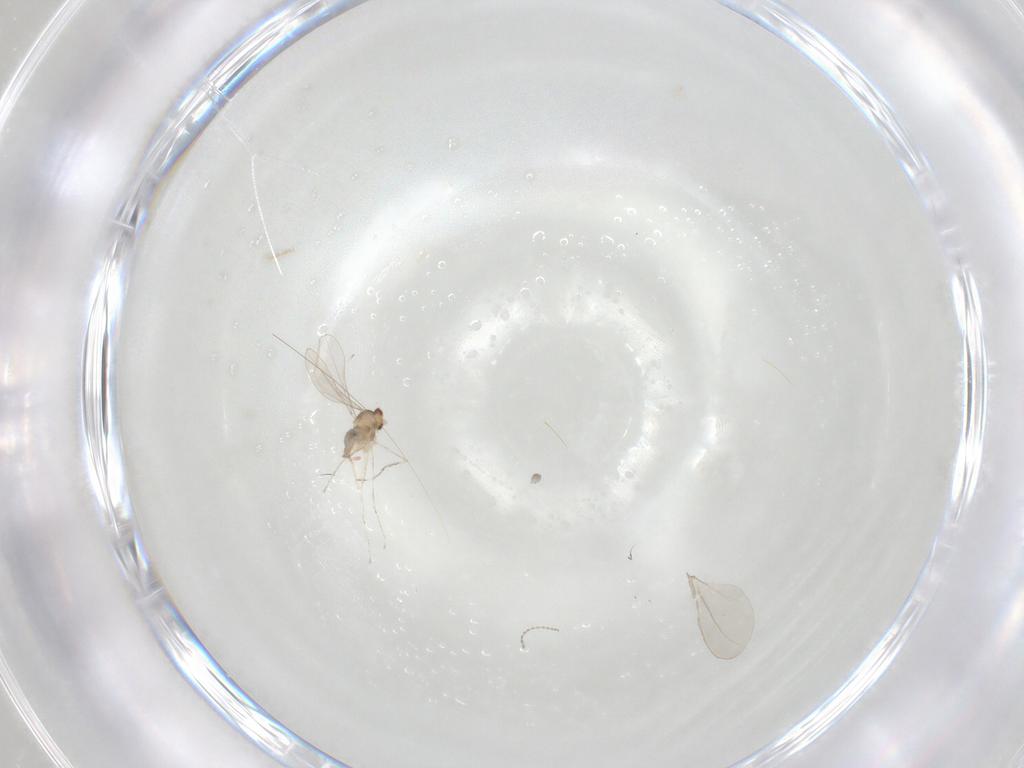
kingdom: Animalia
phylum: Arthropoda
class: Insecta
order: Diptera
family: Cecidomyiidae
